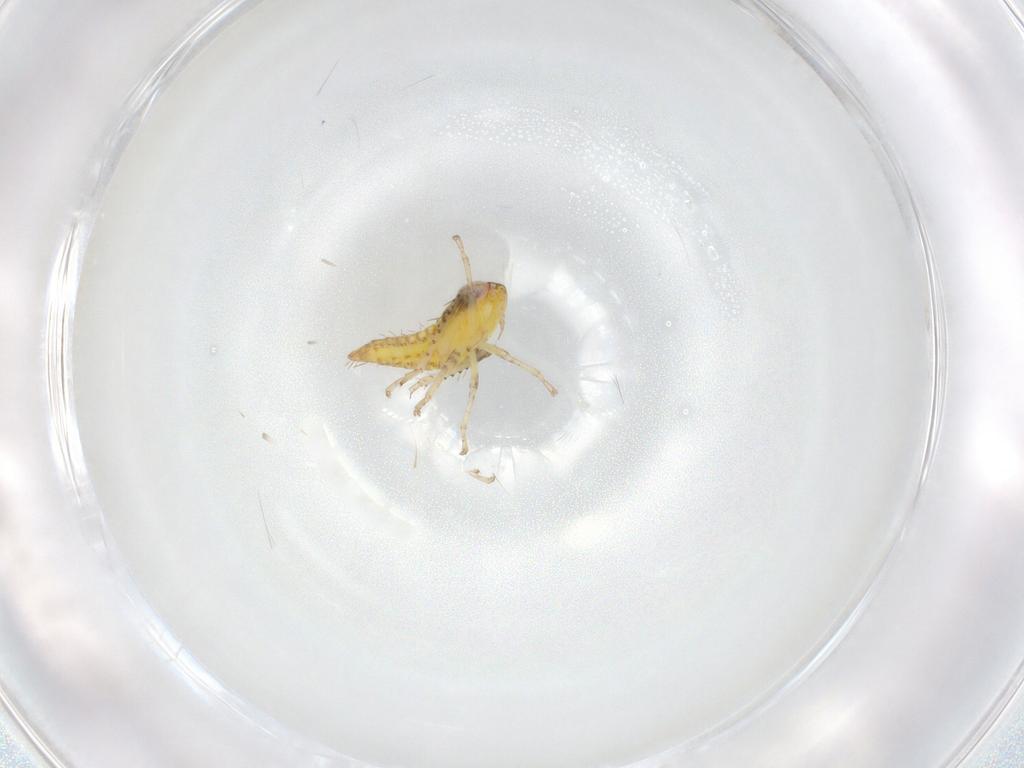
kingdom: Animalia
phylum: Arthropoda
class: Insecta
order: Hemiptera
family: Cicadellidae
